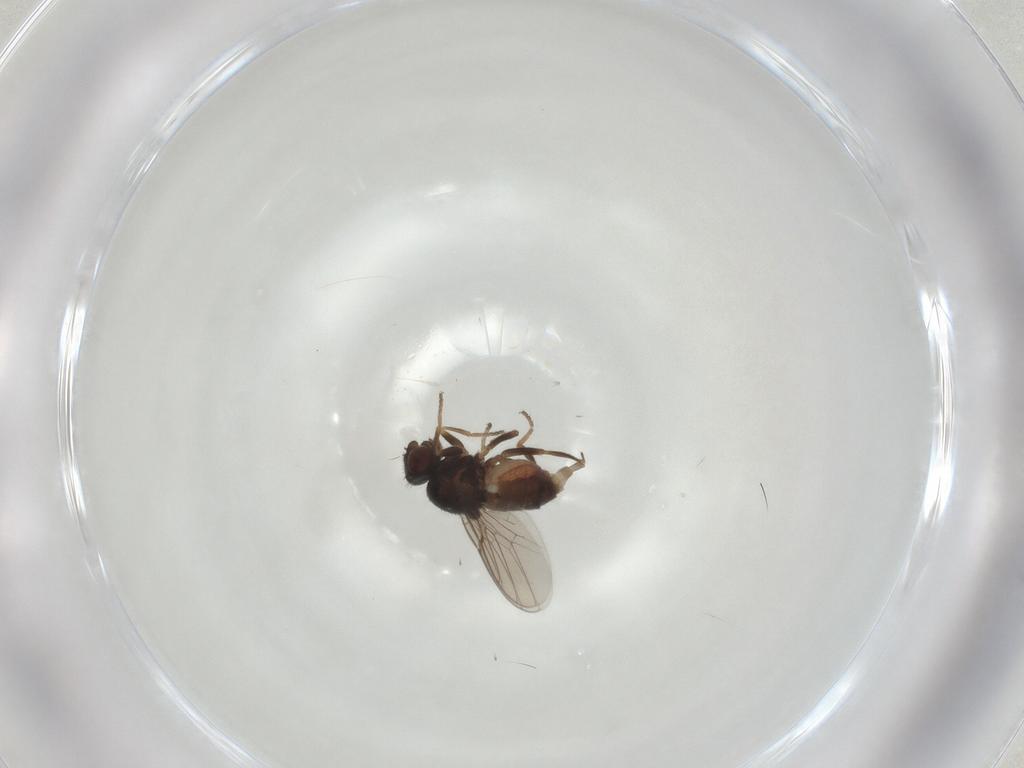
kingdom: Animalia
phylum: Arthropoda
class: Insecta
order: Diptera
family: Chloropidae
